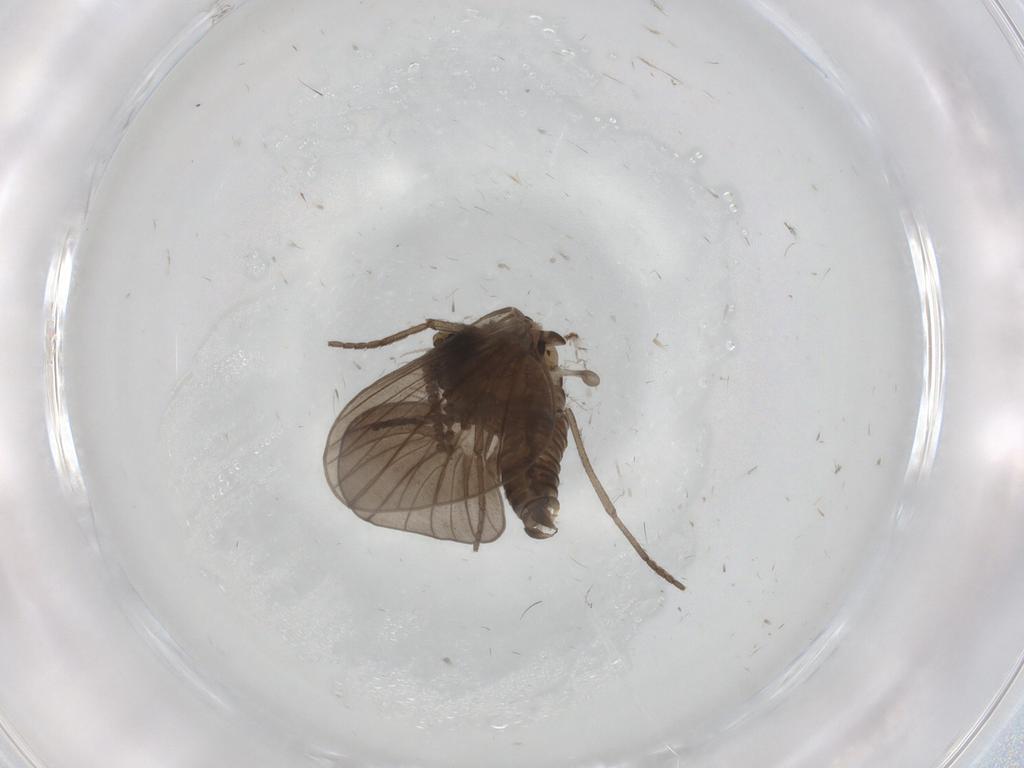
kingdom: Animalia
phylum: Arthropoda
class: Insecta
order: Diptera
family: Psychodidae
